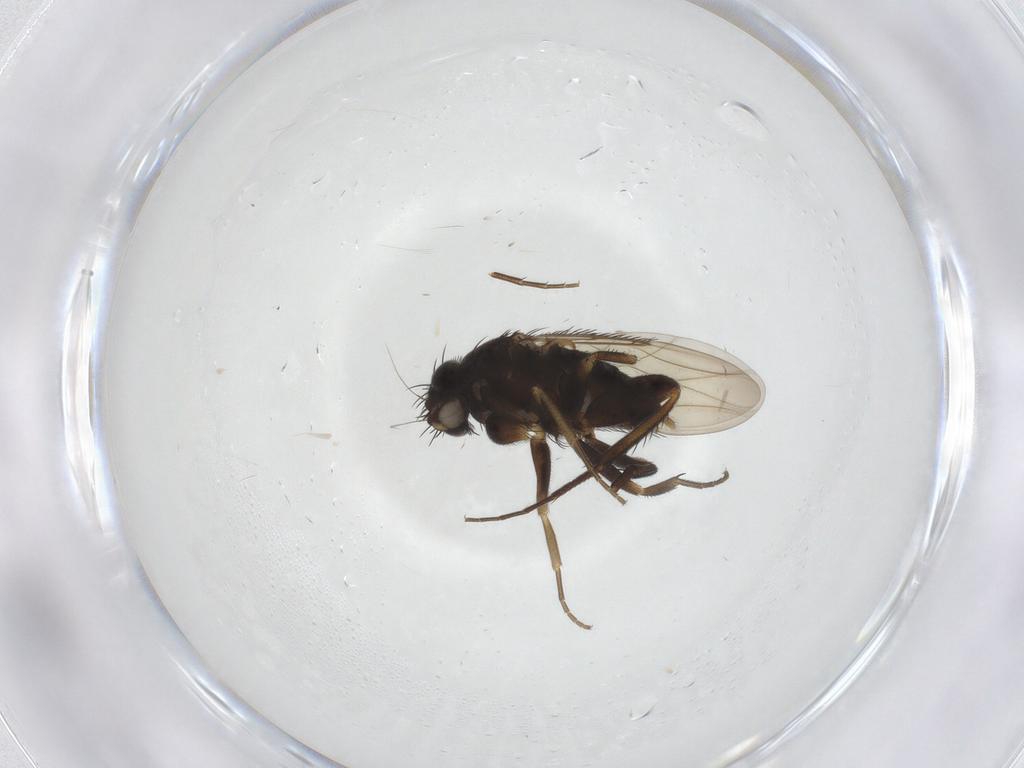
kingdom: Animalia
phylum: Arthropoda
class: Insecta
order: Diptera
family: Phoridae
